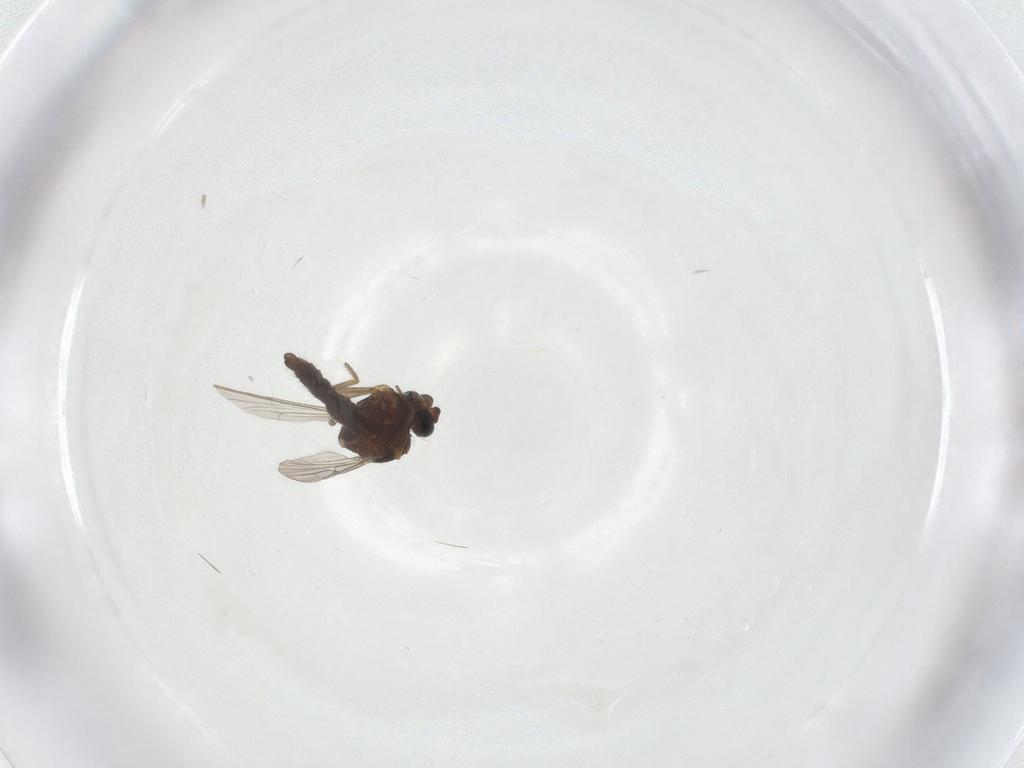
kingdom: Animalia
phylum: Arthropoda
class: Insecta
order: Diptera
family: Ceratopogonidae
